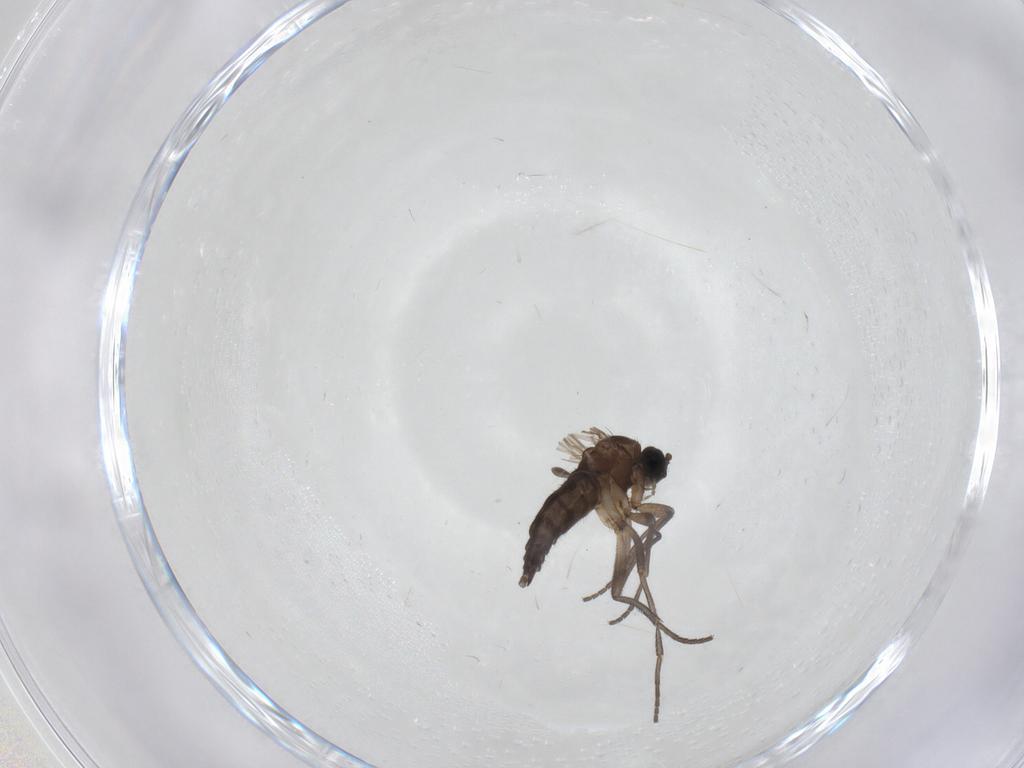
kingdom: Animalia
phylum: Arthropoda
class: Insecta
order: Diptera
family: Sciaridae
